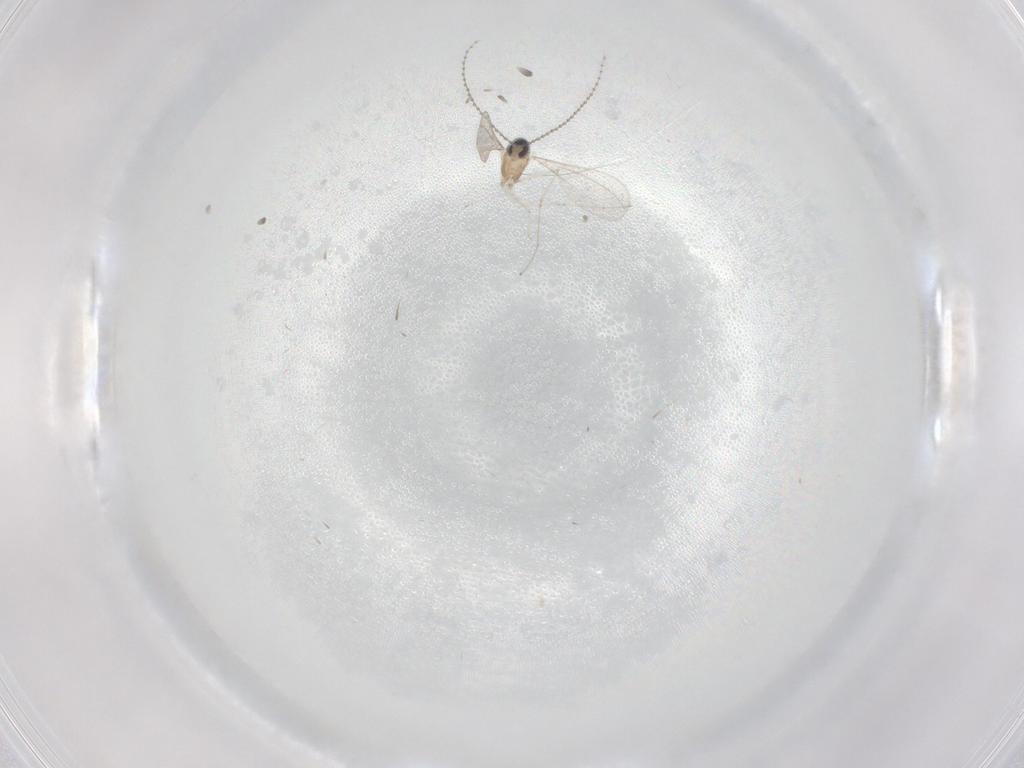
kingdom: Animalia
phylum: Arthropoda
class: Insecta
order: Diptera
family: Cecidomyiidae
